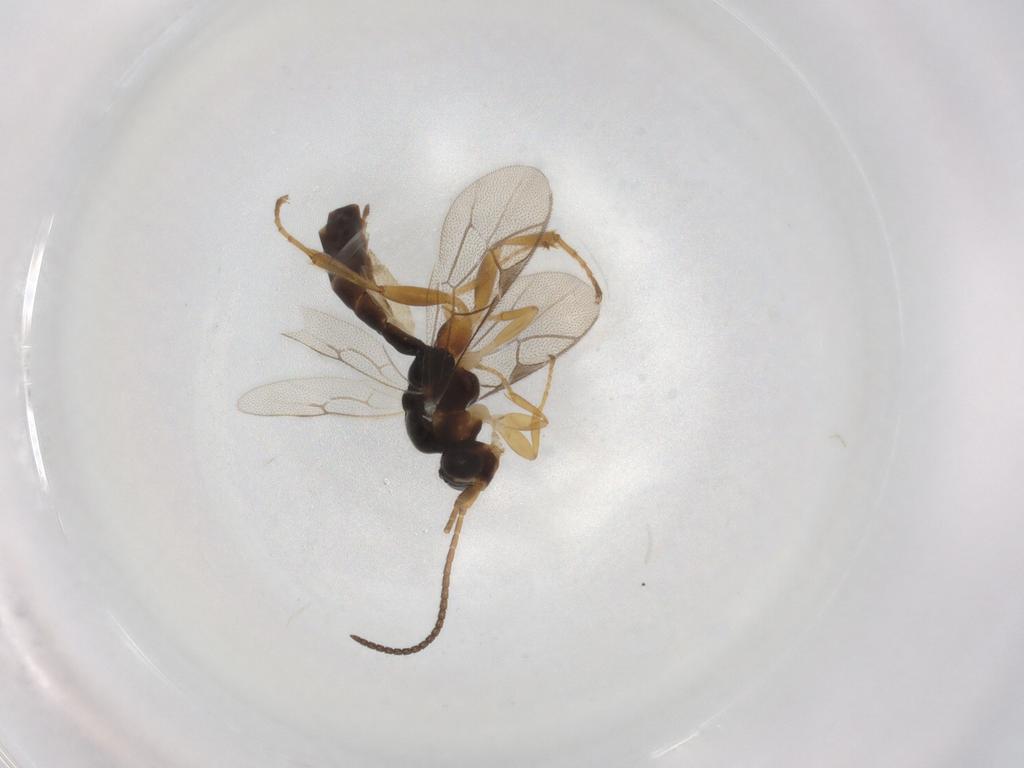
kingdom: Animalia
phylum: Arthropoda
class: Insecta
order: Hymenoptera
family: Ichneumonidae
